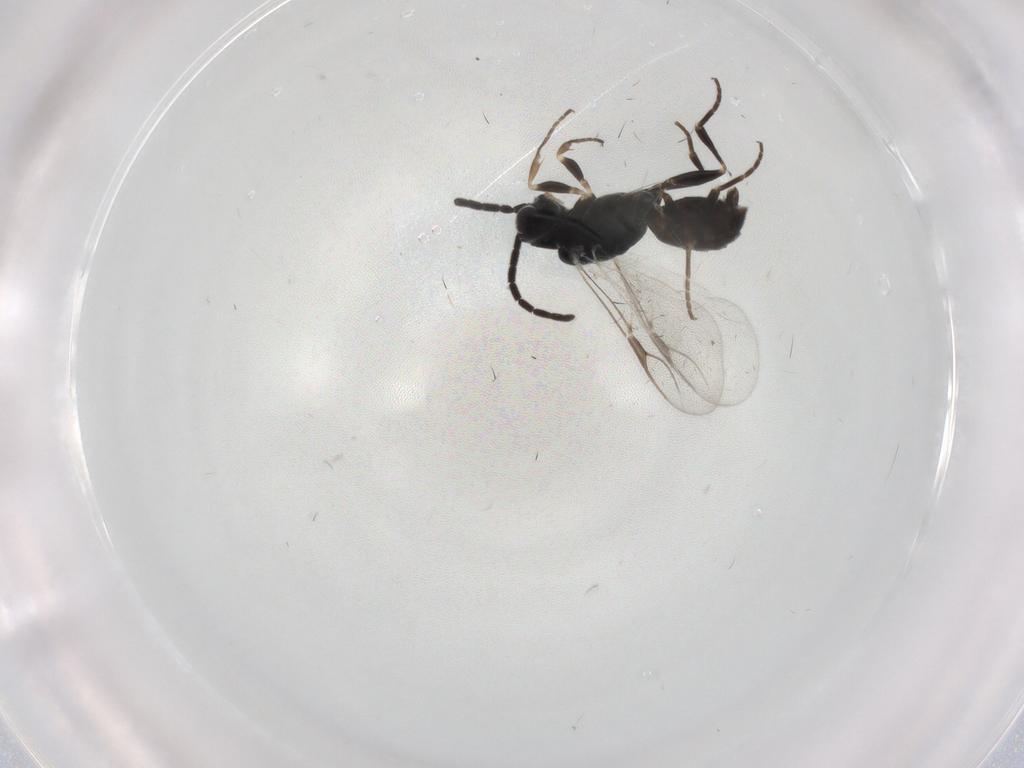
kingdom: Animalia
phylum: Arthropoda
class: Insecta
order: Hymenoptera
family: Dryinidae
